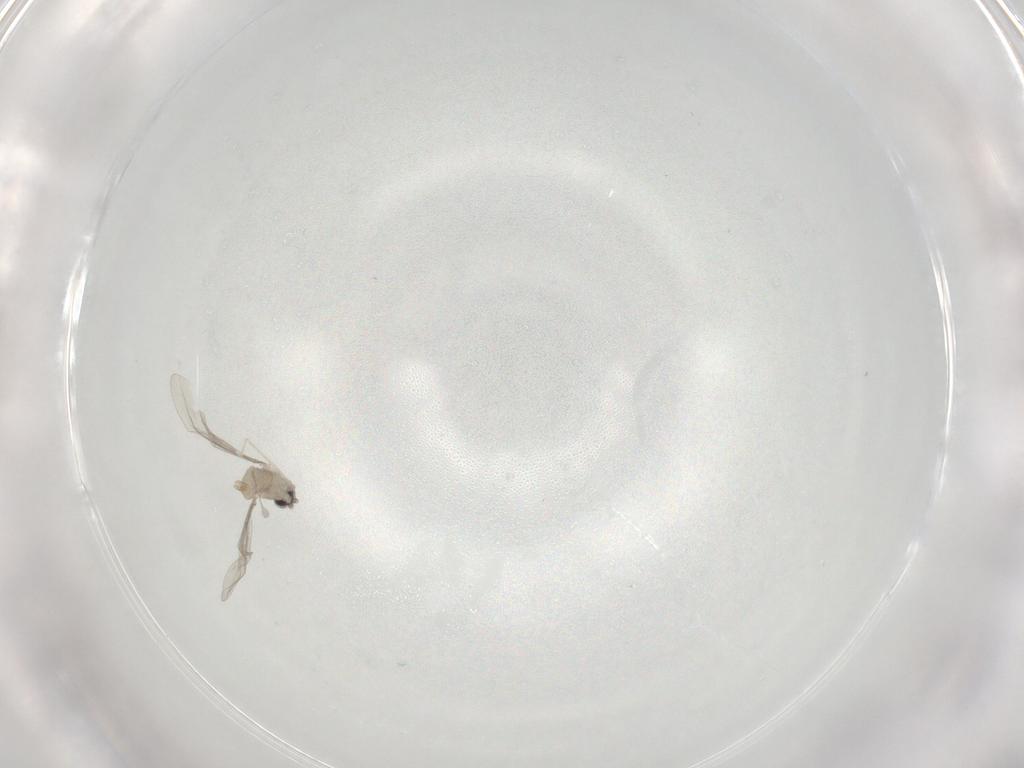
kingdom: Animalia
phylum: Arthropoda
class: Insecta
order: Diptera
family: Cecidomyiidae
